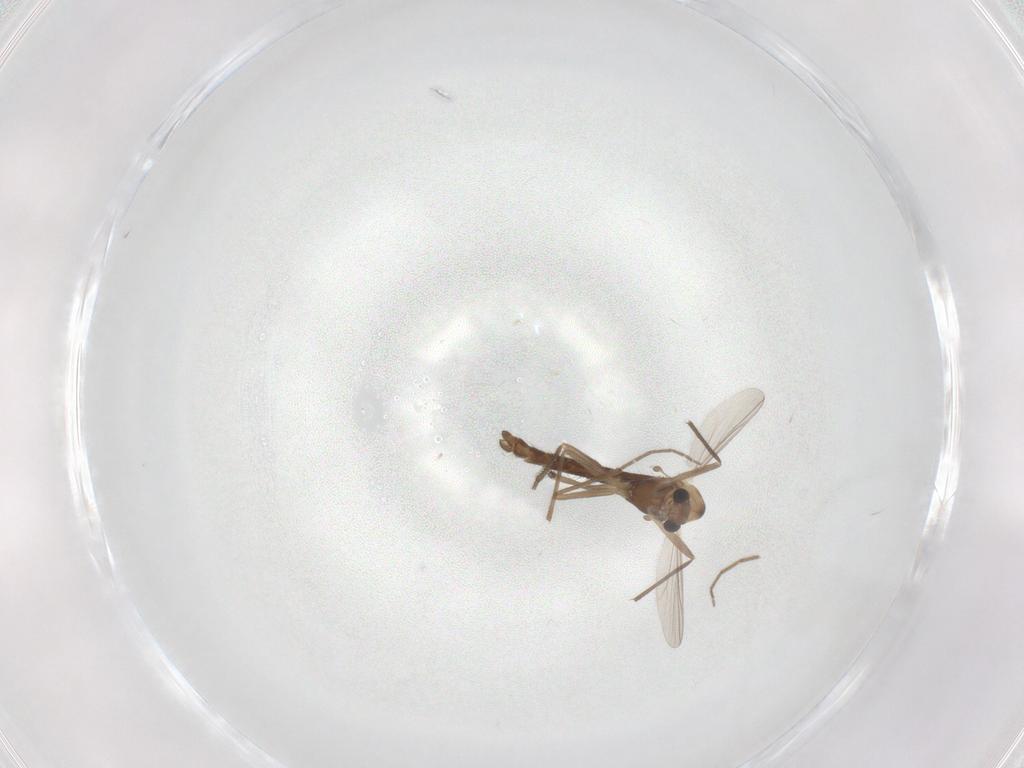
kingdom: Animalia
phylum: Arthropoda
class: Insecta
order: Diptera
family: Chironomidae
